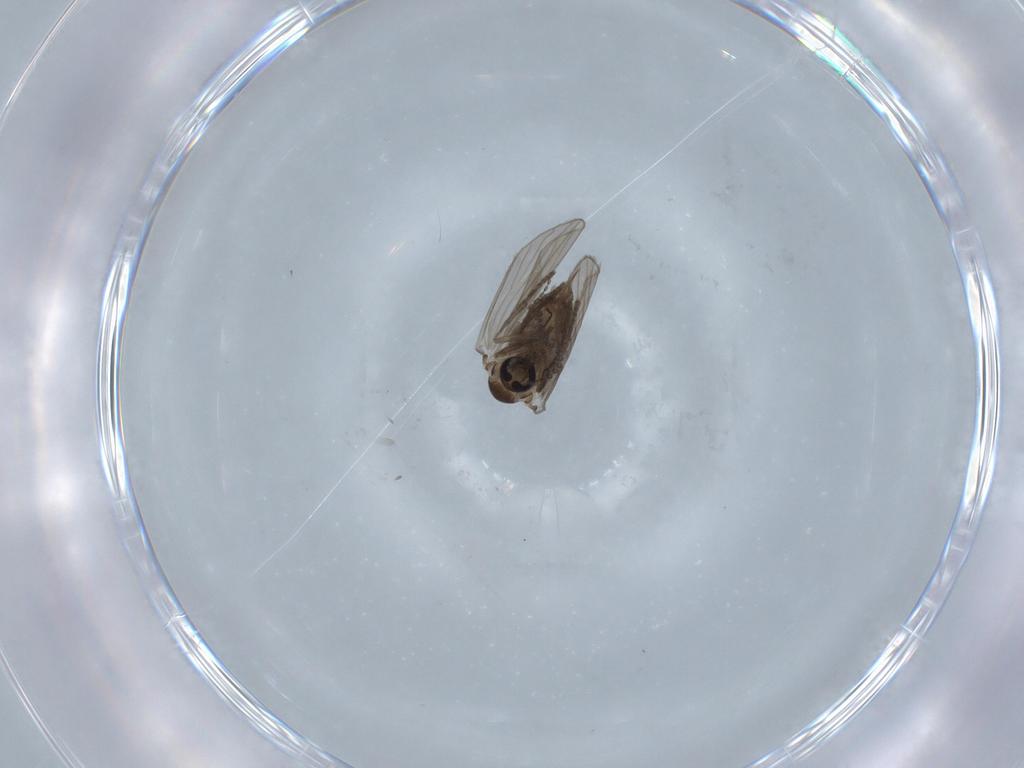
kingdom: Animalia
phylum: Arthropoda
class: Insecta
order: Diptera
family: Psychodidae
